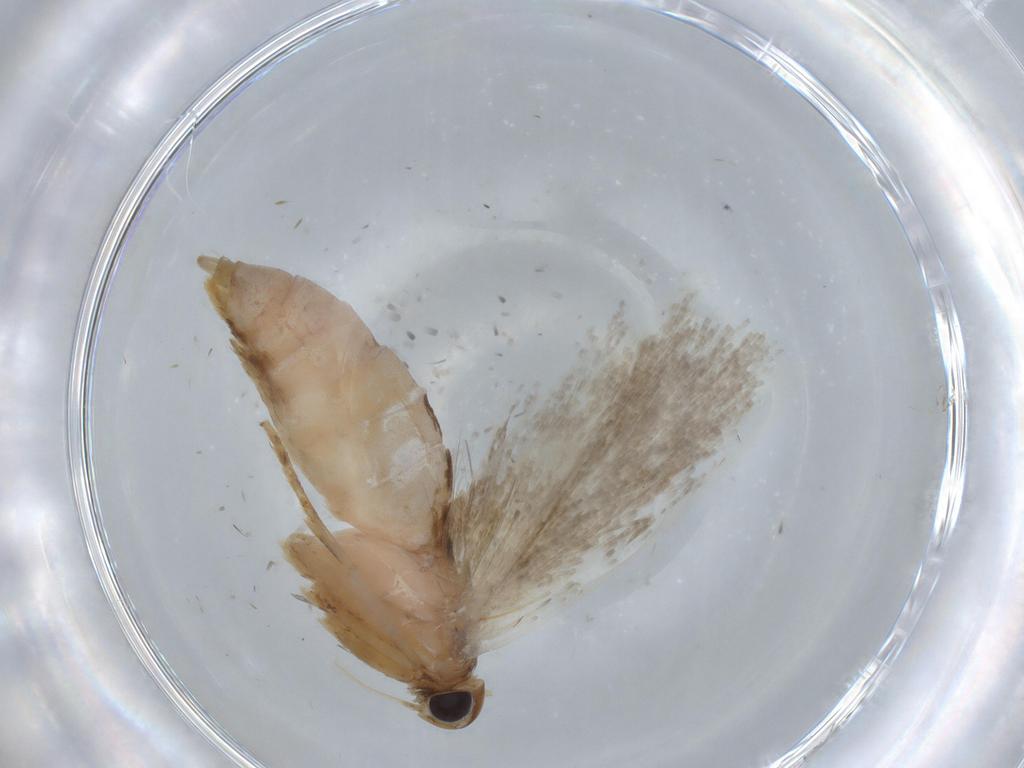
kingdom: Animalia
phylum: Arthropoda
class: Insecta
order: Lepidoptera
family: Gelechiidae
